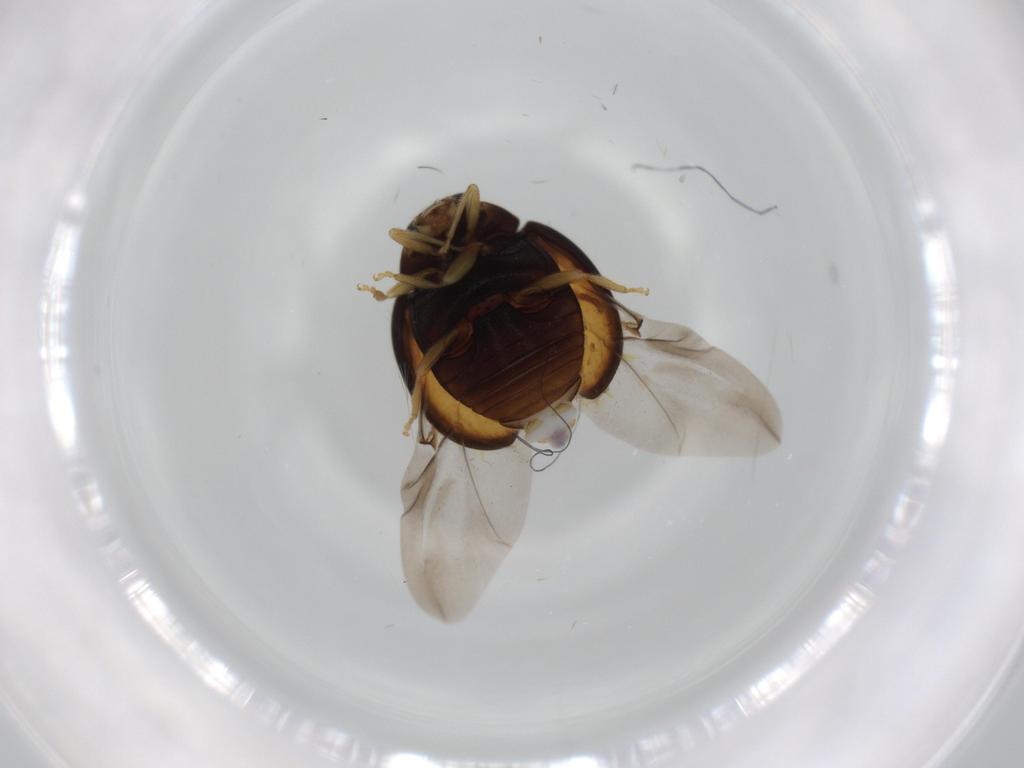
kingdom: Animalia
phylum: Arthropoda
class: Insecta
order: Coleoptera
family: Coccinellidae
